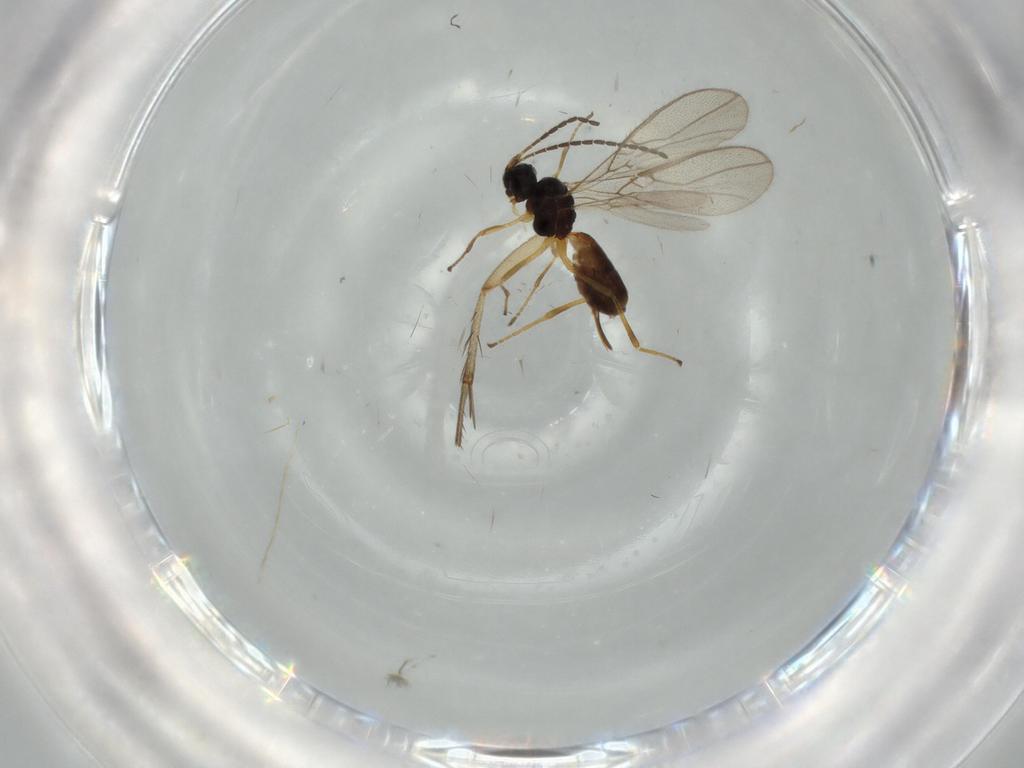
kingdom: Animalia
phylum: Arthropoda
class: Insecta
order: Hymenoptera
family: Braconidae
